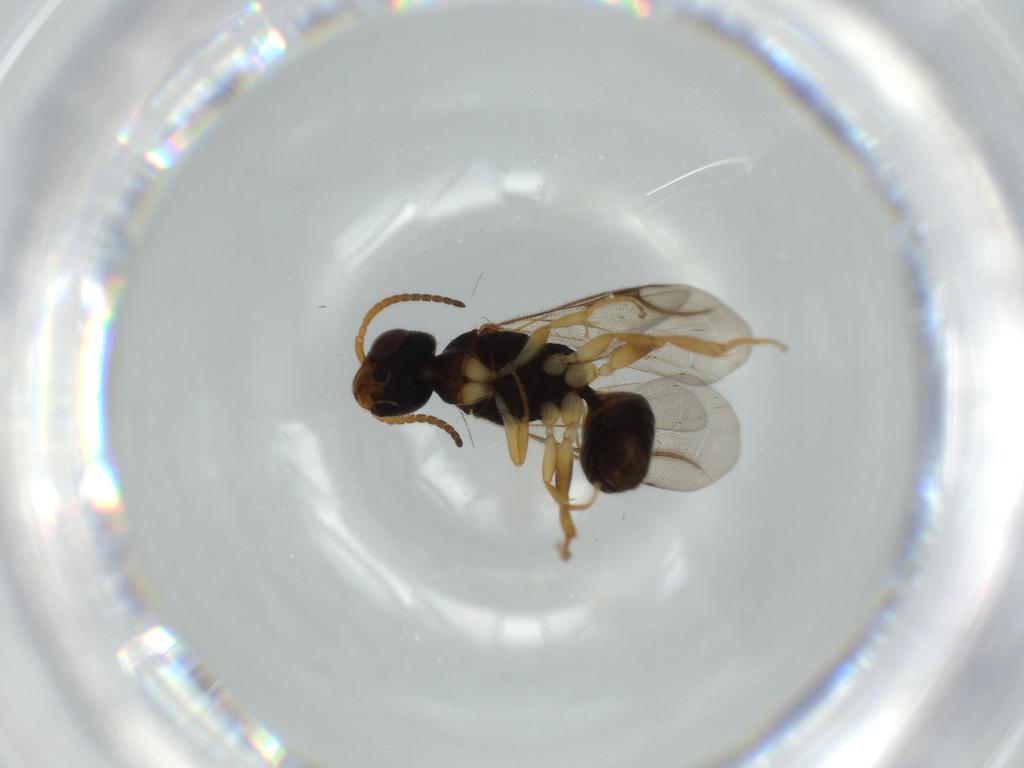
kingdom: Animalia
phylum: Arthropoda
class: Insecta
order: Hymenoptera
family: Bethylidae
